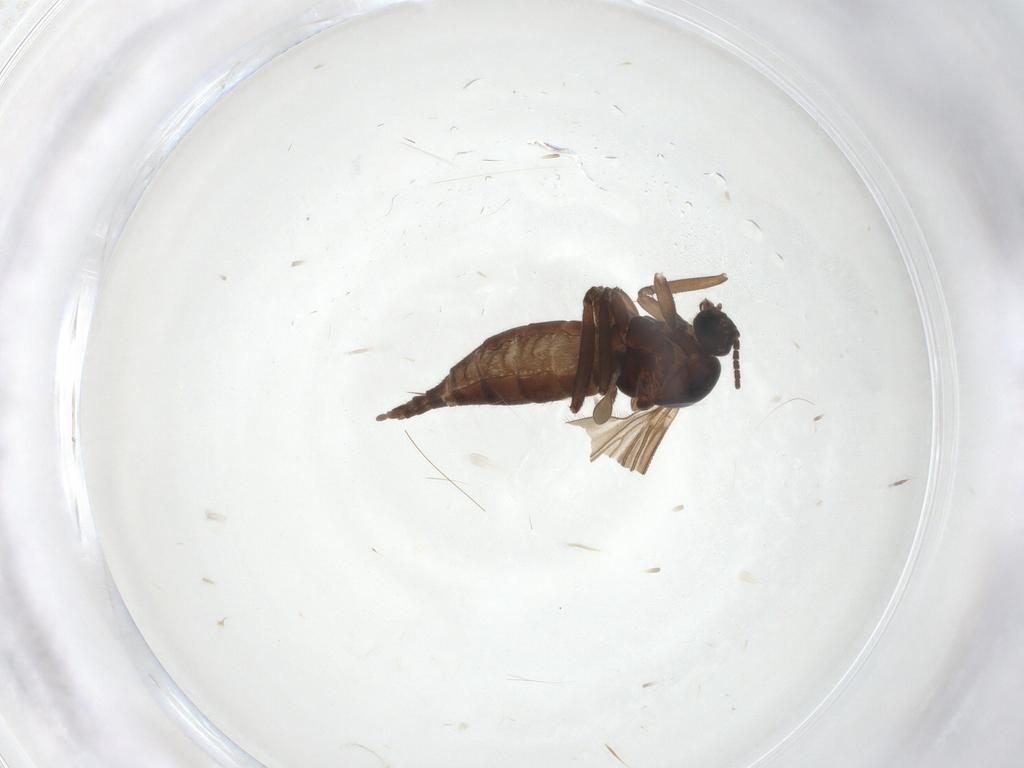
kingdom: Animalia
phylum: Arthropoda
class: Insecta
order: Diptera
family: Sciaridae
